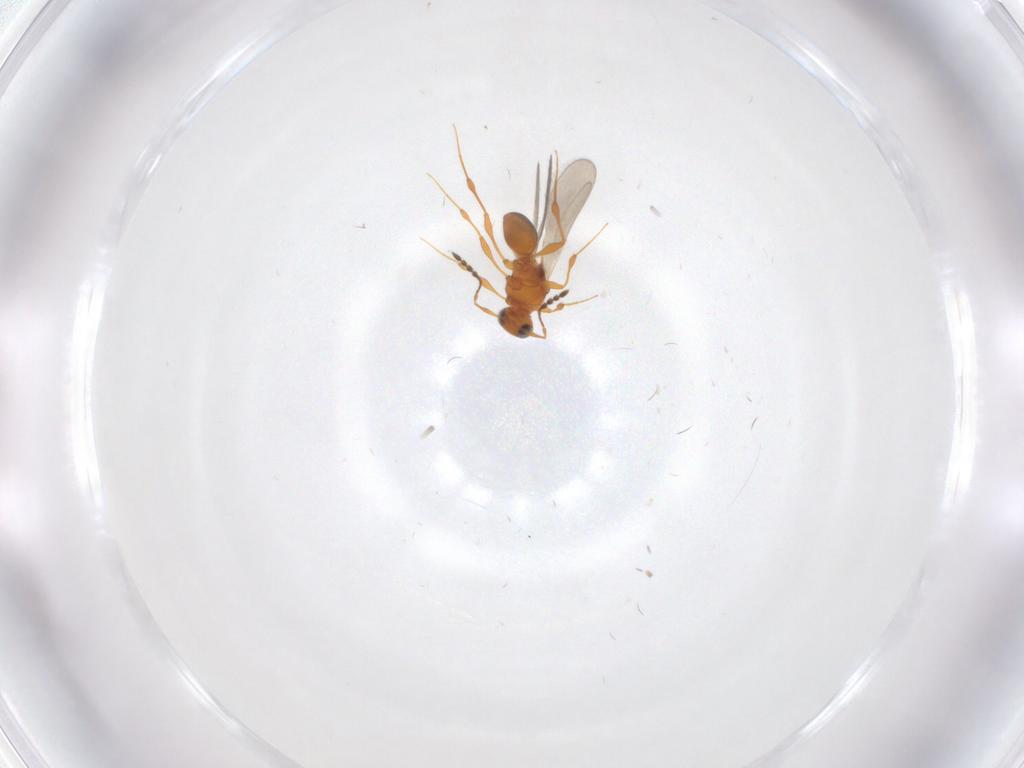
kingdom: Animalia
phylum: Arthropoda
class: Insecta
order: Hymenoptera
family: Platygastridae
